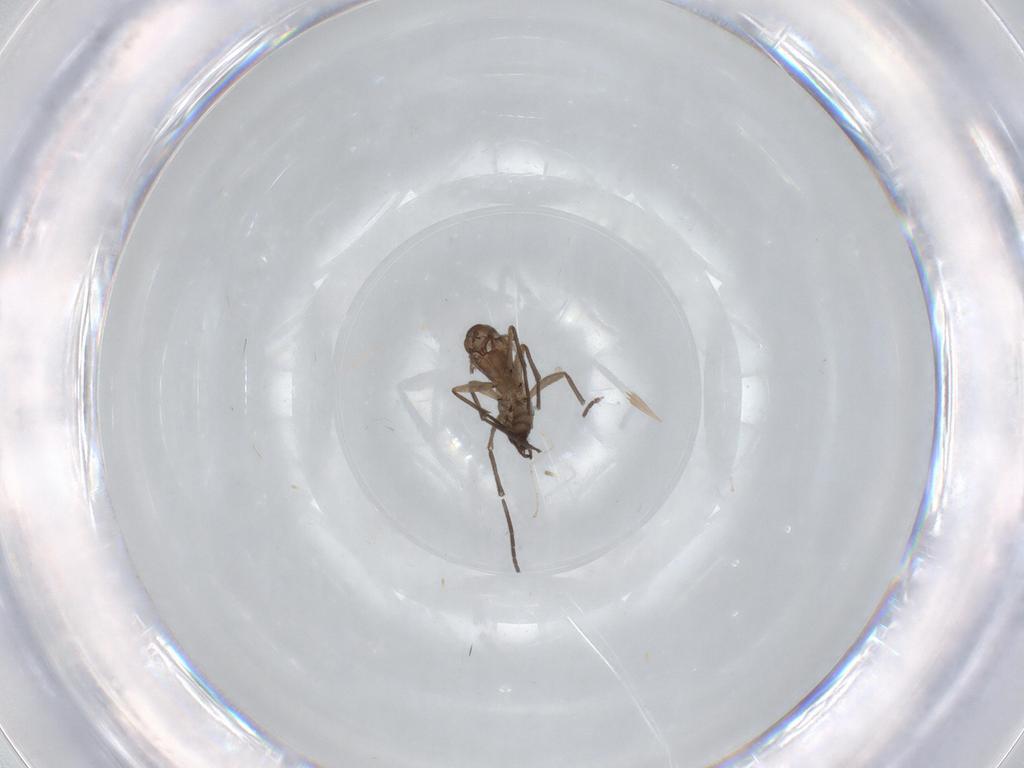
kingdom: Animalia
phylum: Arthropoda
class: Insecta
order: Diptera
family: Sciaridae
